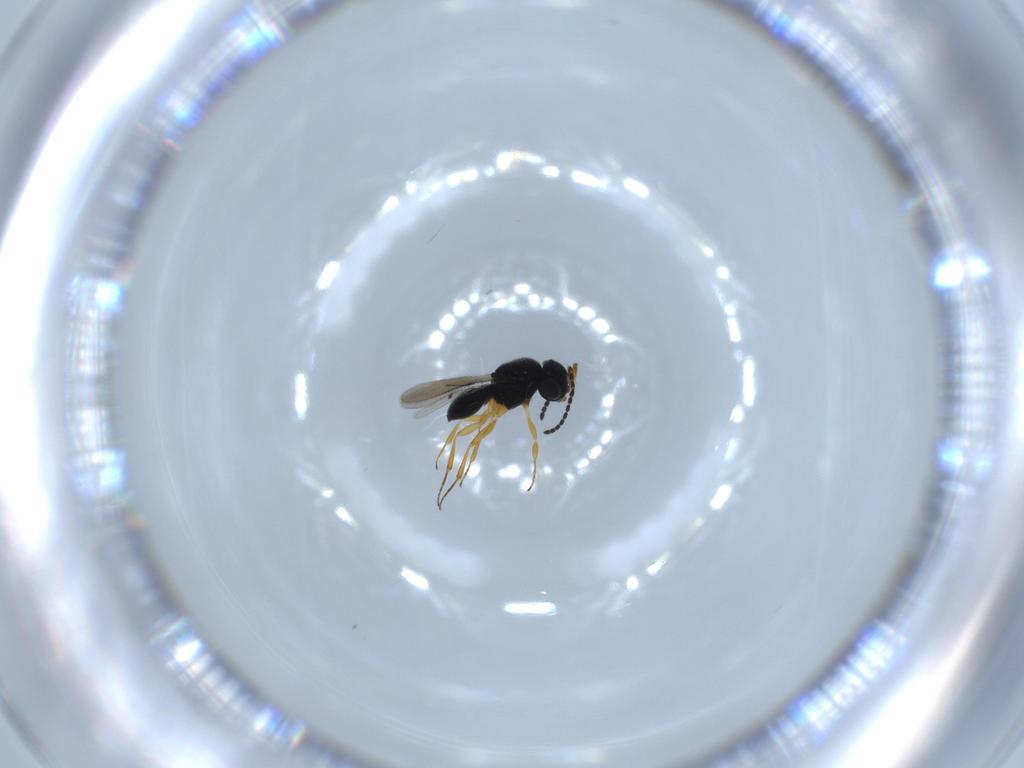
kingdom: Animalia
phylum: Arthropoda
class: Insecta
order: Hymenoptera
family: Scelionidae
